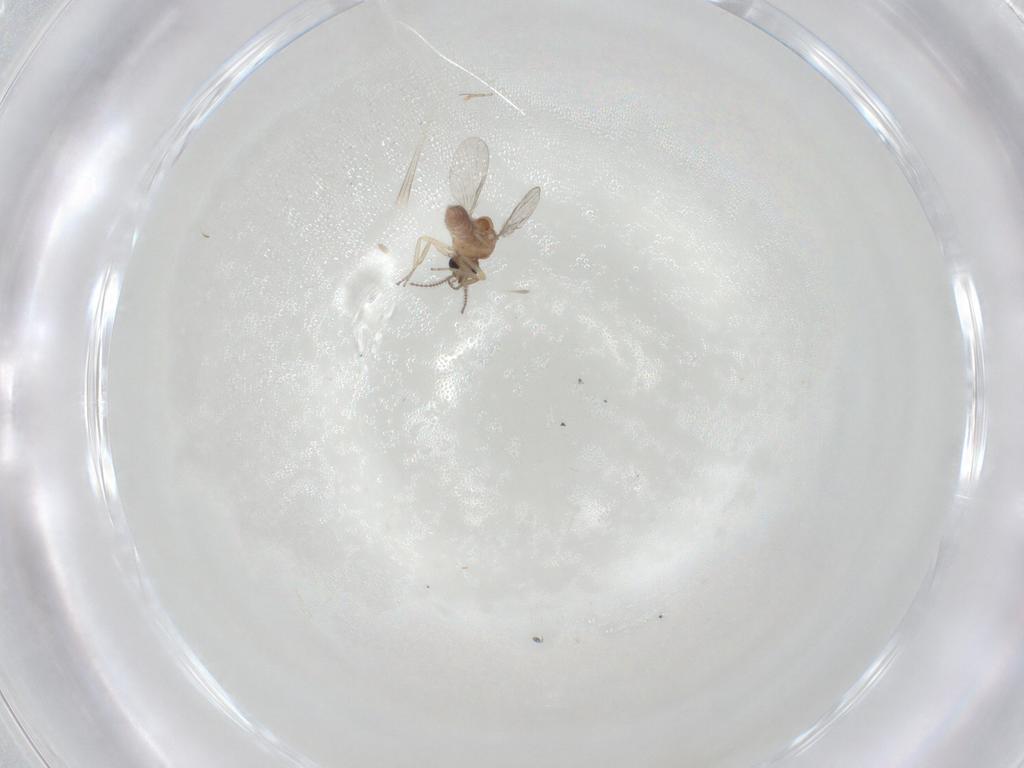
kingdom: Animalia
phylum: Arthropoda
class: Insecta
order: Diptera
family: Ceratopogonidae
